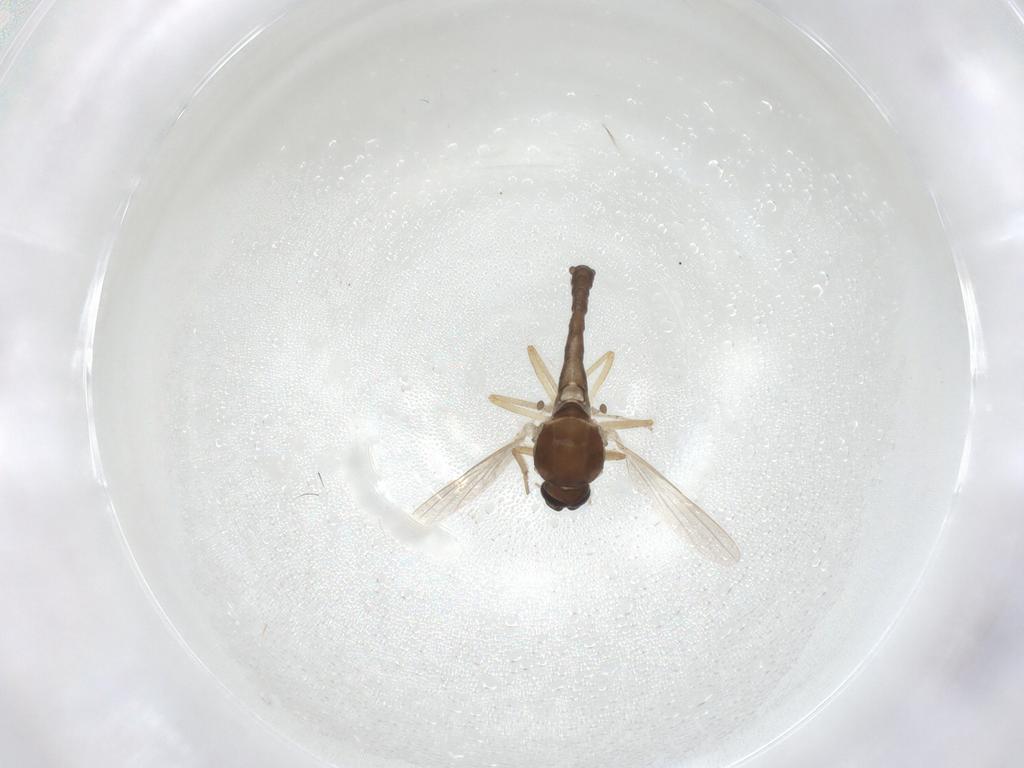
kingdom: Animalia
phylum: Arthropoda
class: Insecta
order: Diptera
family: Ceratopogonidae
